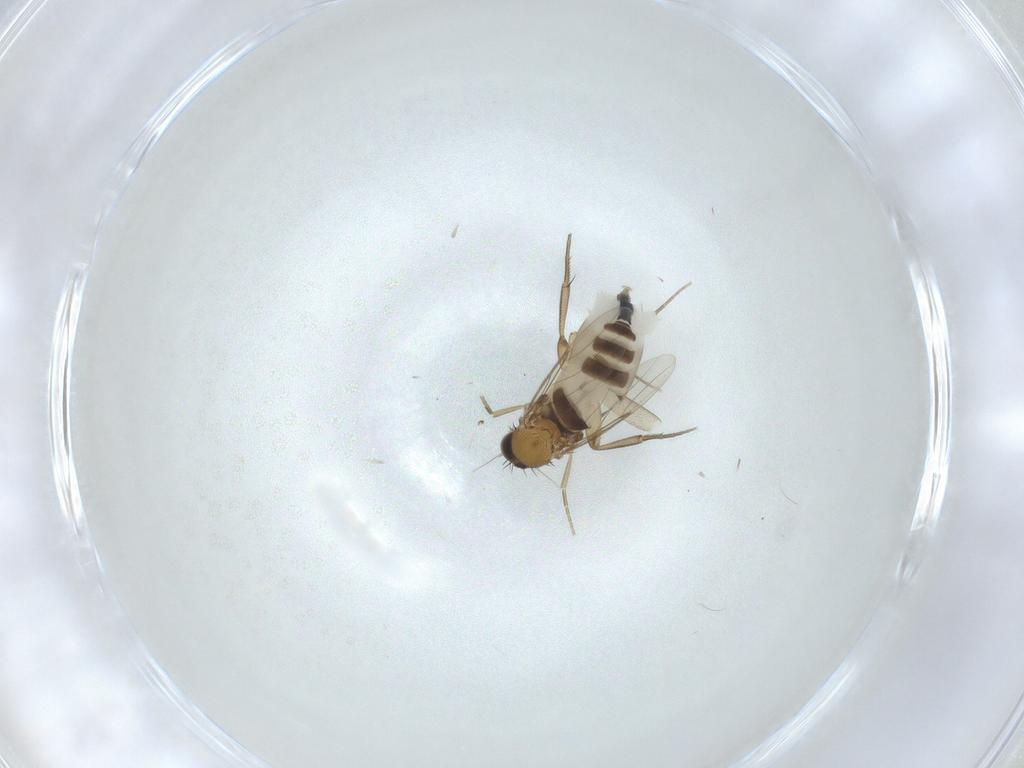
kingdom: Animalia
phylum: Arthropoda
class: Insecta
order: Diptera
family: Phoridae
